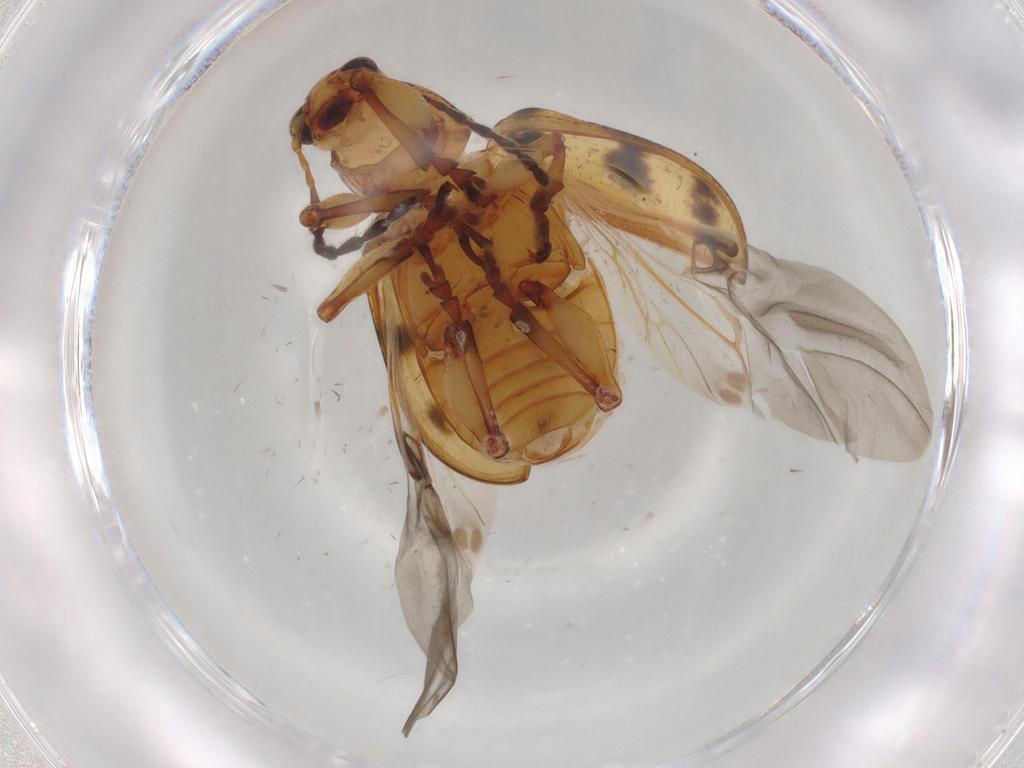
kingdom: Animalia
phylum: Arthropoda
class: Insecta
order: Coleoptera
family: Chrysomelidae
